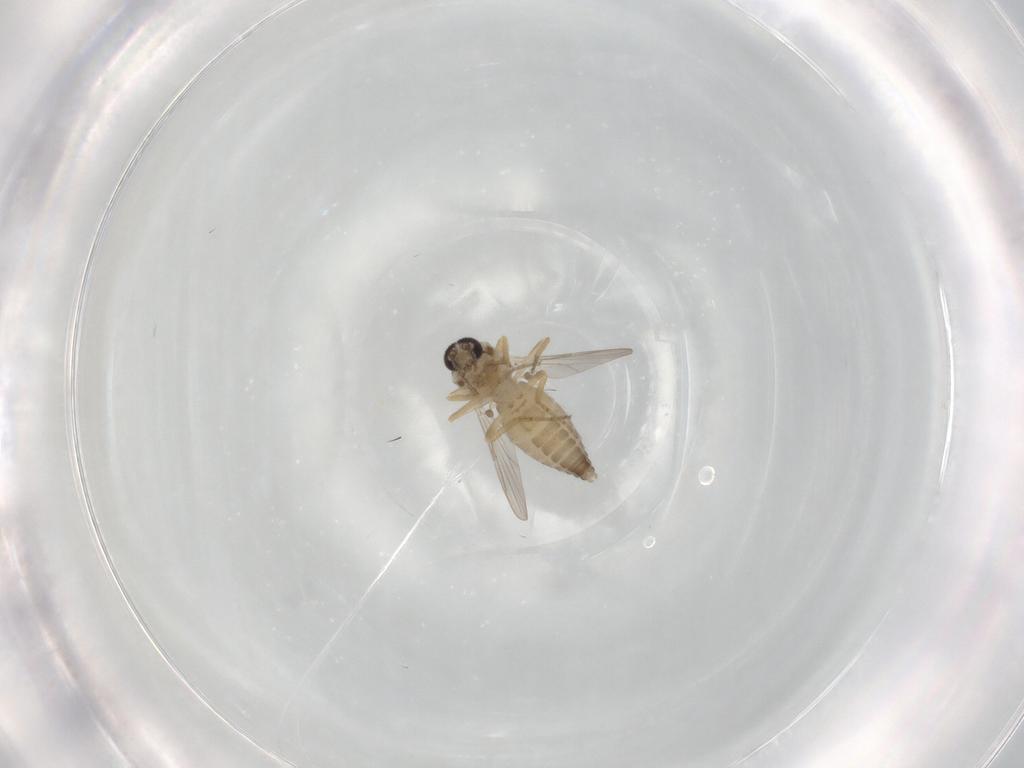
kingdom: Animalia
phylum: Arthropoda
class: Insecta
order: Diptera
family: Ceratopogonidae
